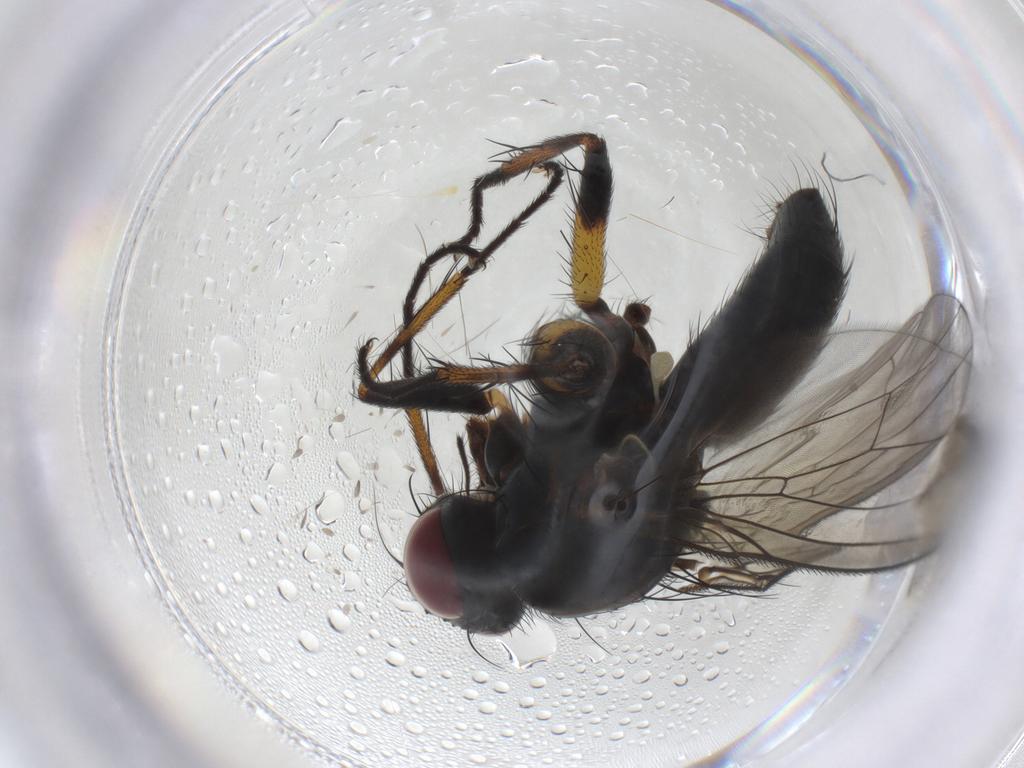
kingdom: Animalia
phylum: Arthropoda
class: Insecta
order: Diptera
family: Muscidae
